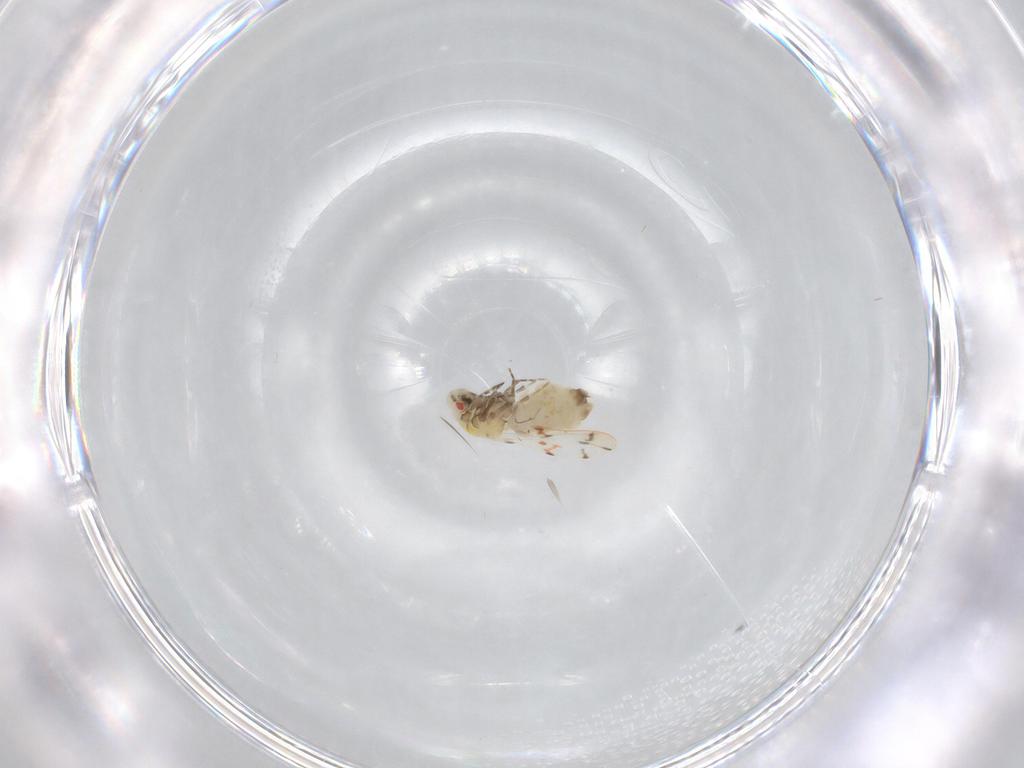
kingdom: Animalia
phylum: Arthropoda
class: Insecta
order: Hemiptera
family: Aleyrodidae
